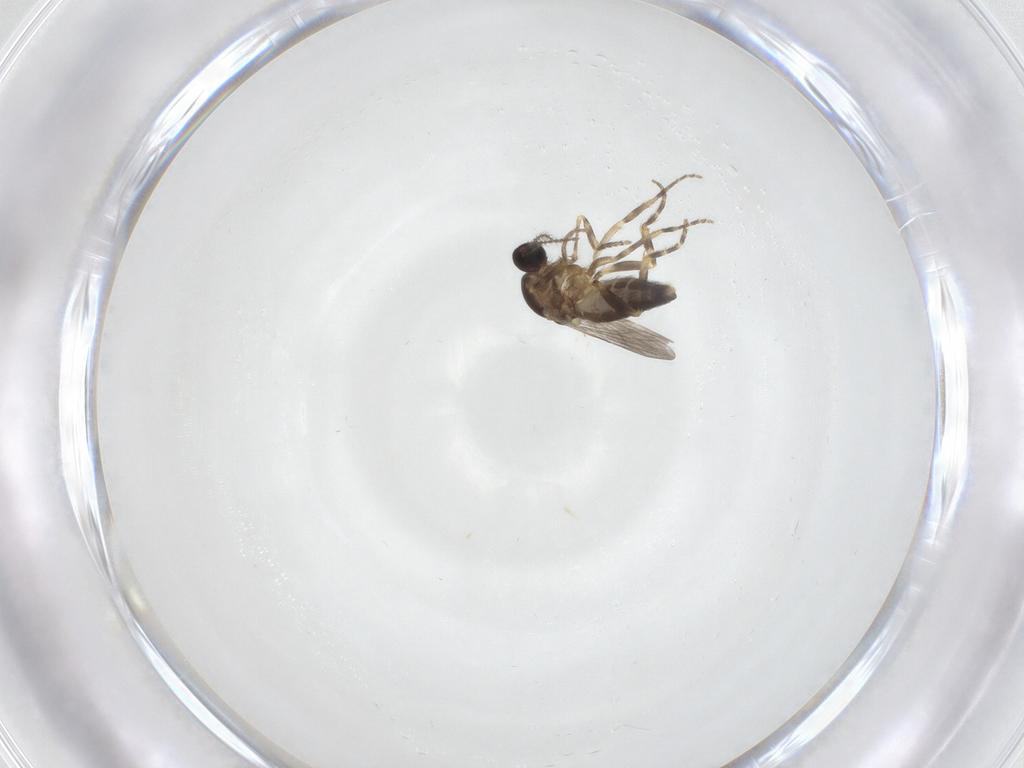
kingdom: Animalia
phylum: Arthropoda
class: Insecta
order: Diptera
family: Ceratopogonidae
